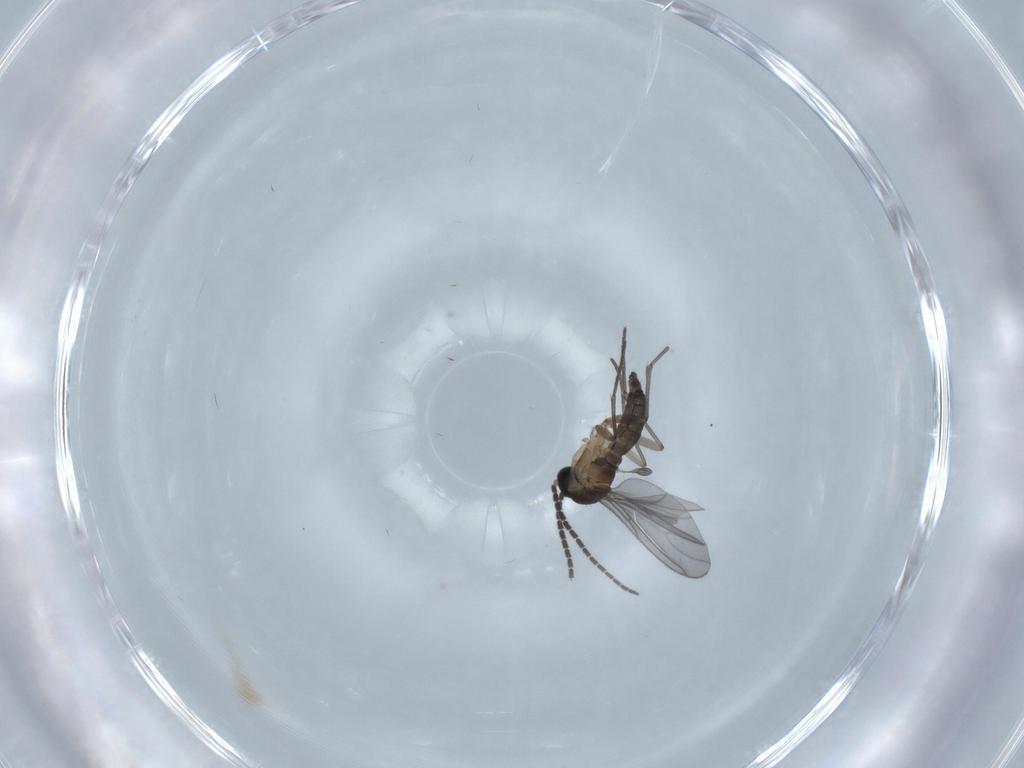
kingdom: Animalia
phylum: Arthropoda
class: Insecta
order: Diptera
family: Sciaridae
